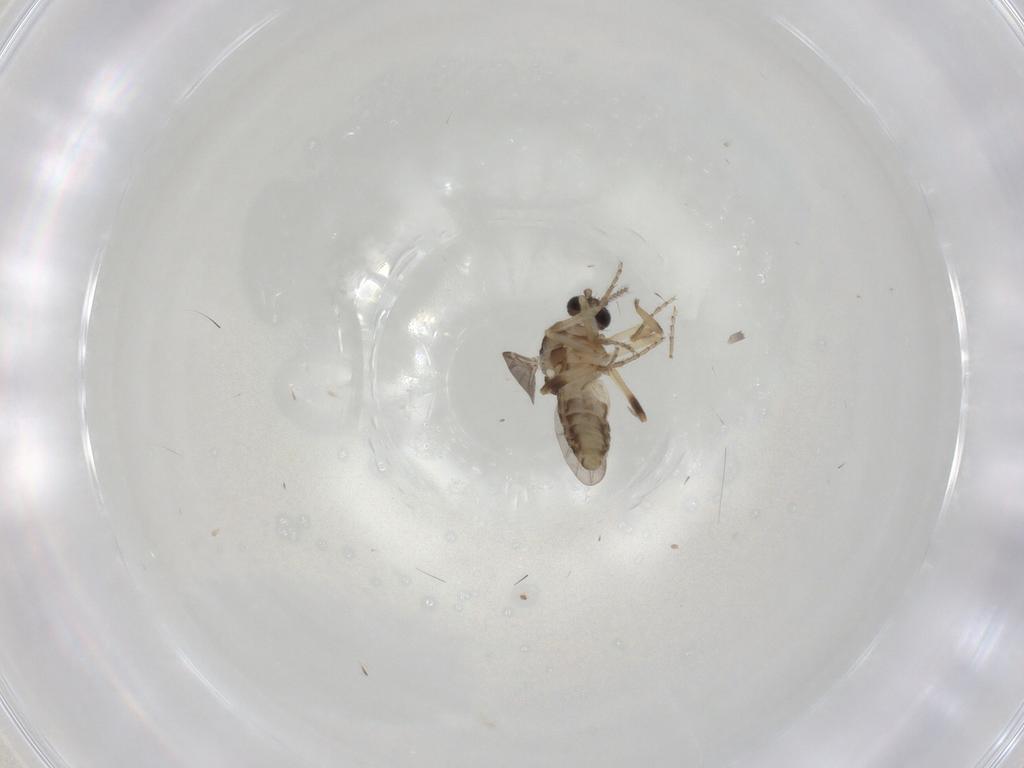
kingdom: Animalia
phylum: Arthropoda
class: Insecta
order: Diptera
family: Ceratopogonidae
